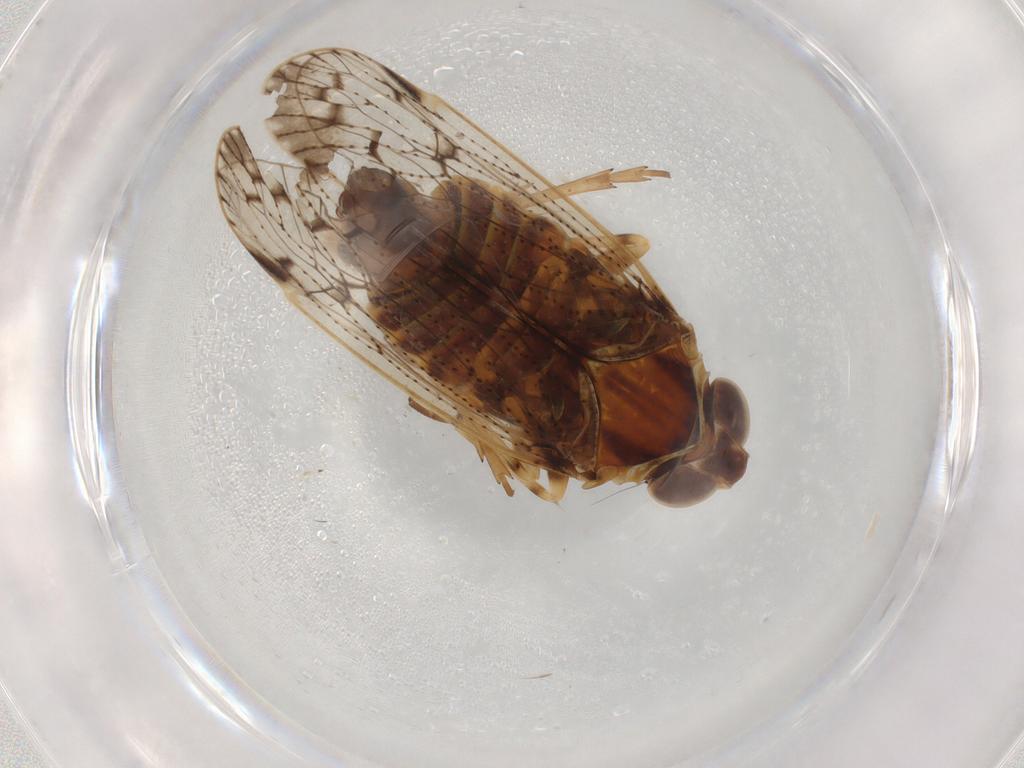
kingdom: Animalia
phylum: Arthropoda
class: Insecta
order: Hemiptera
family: Cixiidae
